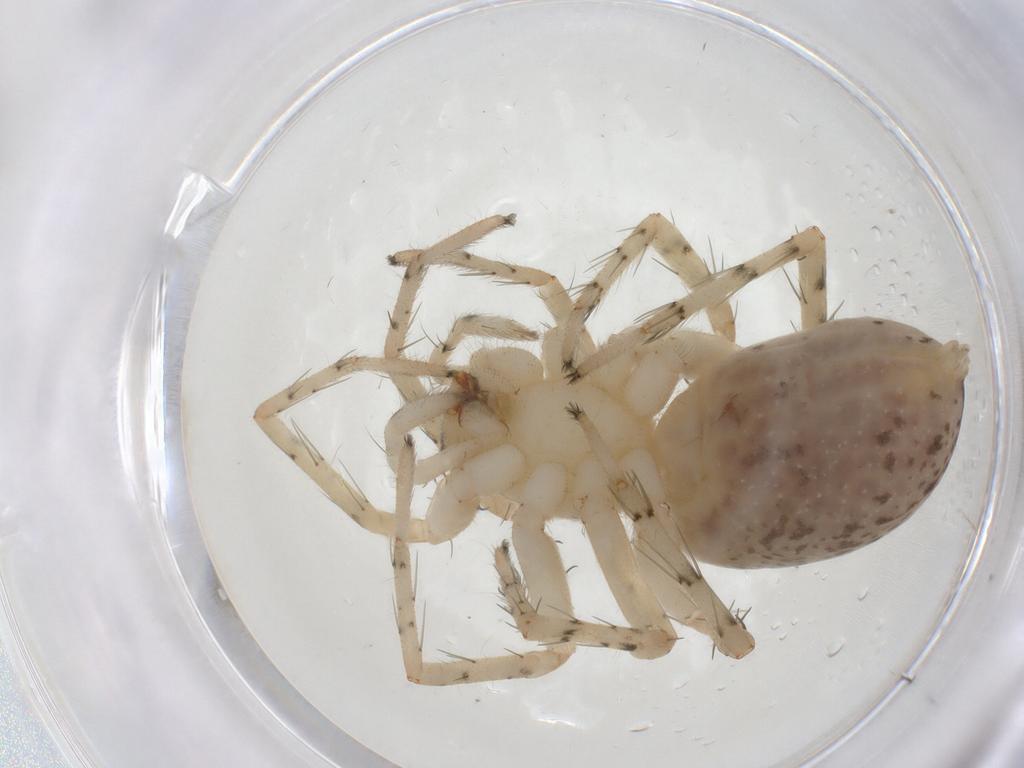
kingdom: Animalia
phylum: Arthropoda
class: Arachnida
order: Araneae
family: Anyphaenidae
